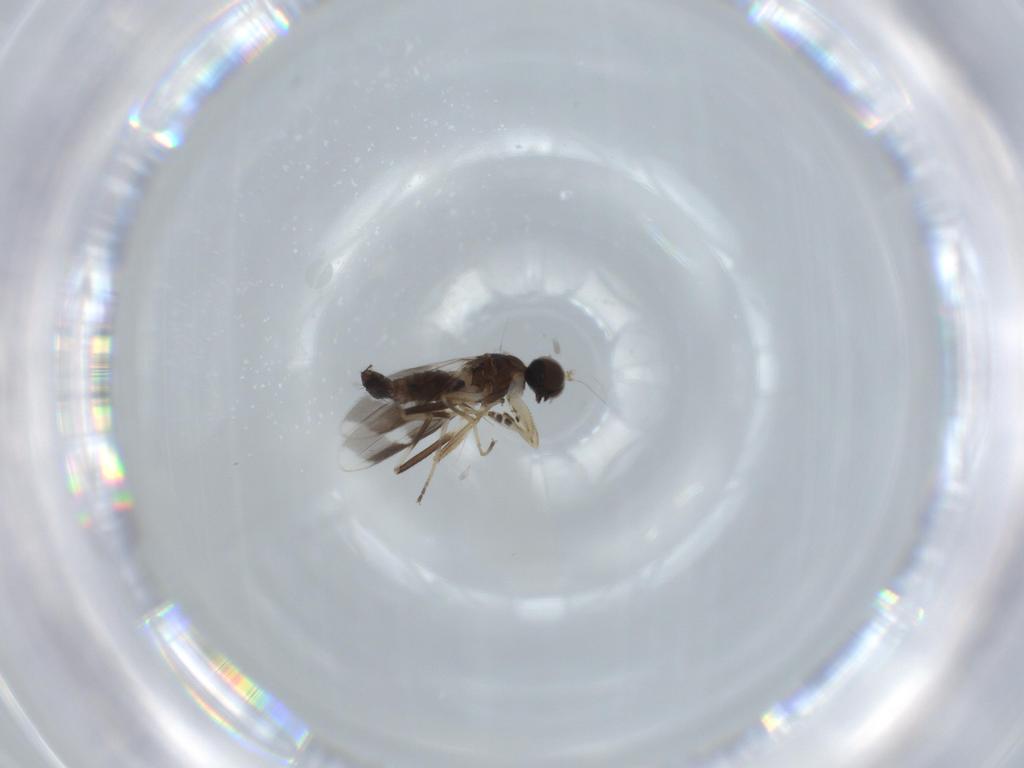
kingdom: Animalia
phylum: Arthropoda
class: Insecta
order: Diptera
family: Hybotidae
